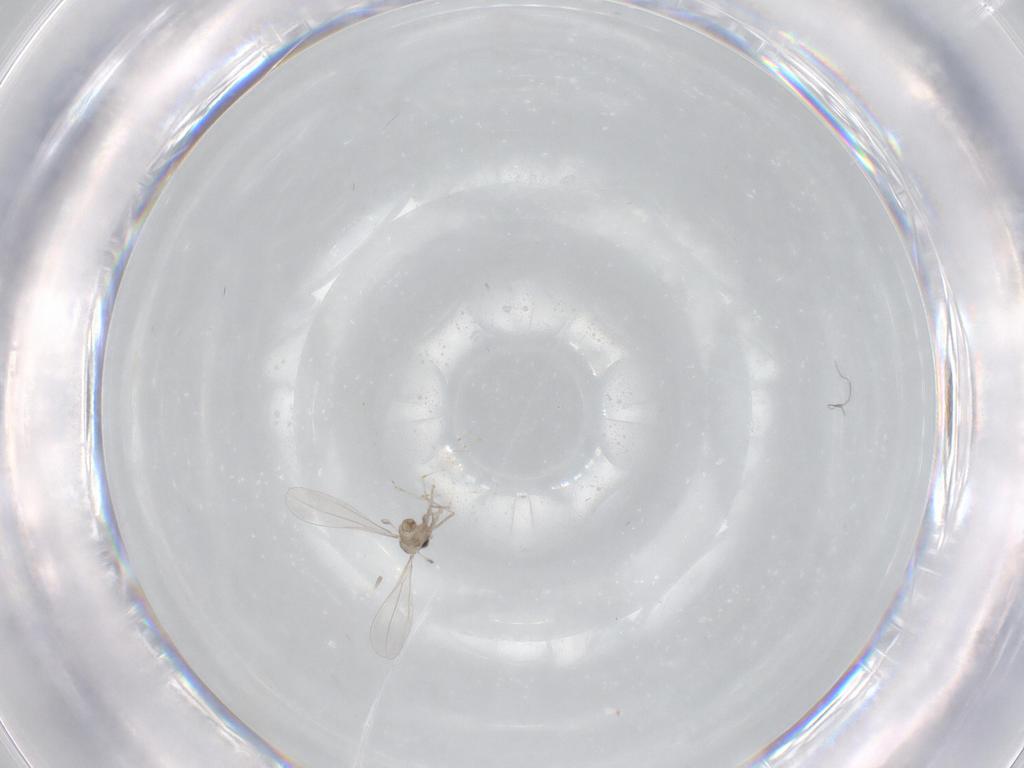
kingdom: Animalia
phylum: Arthropoda
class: Insecta
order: Diptera
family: Cecidomyiidae
